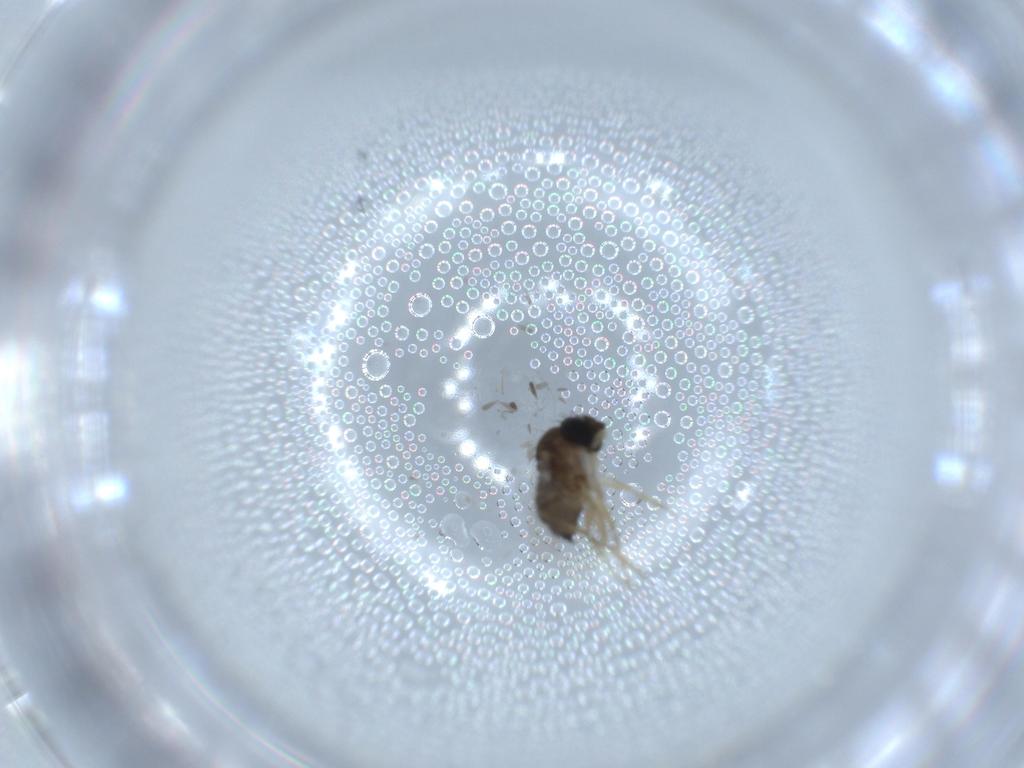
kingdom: Animalia
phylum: Arthropoda
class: Insecta
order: Diptera
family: Phoridae
